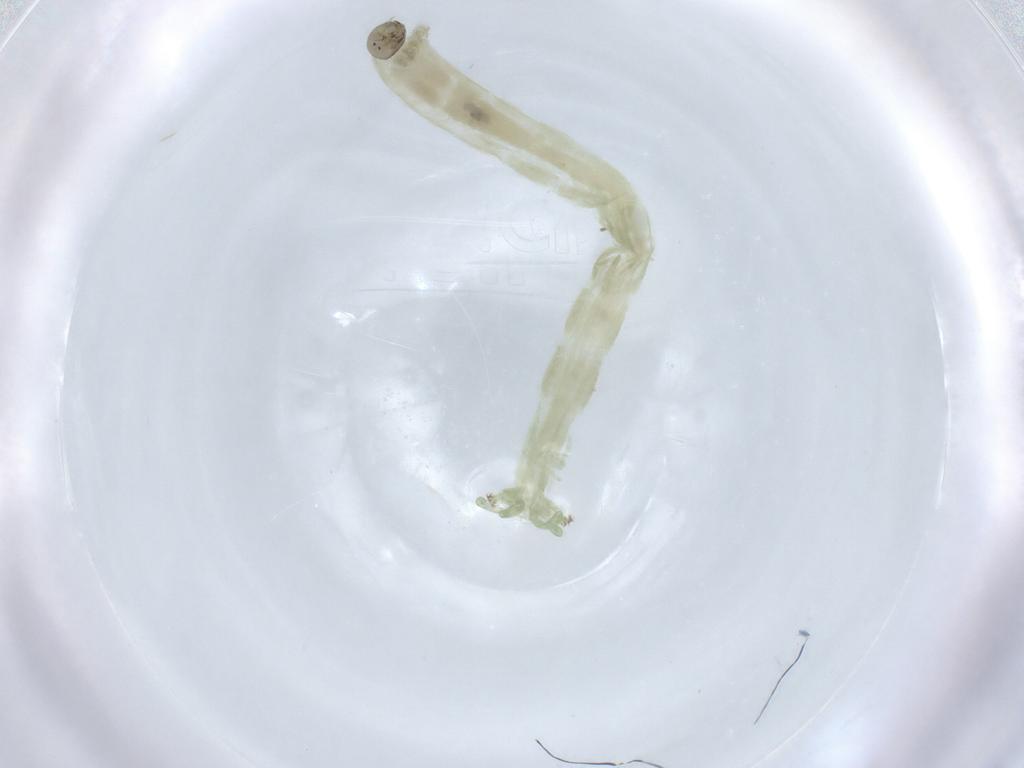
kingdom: Animalia
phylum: Arthropoda
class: Insecta
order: Diptera
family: Chironomidae
